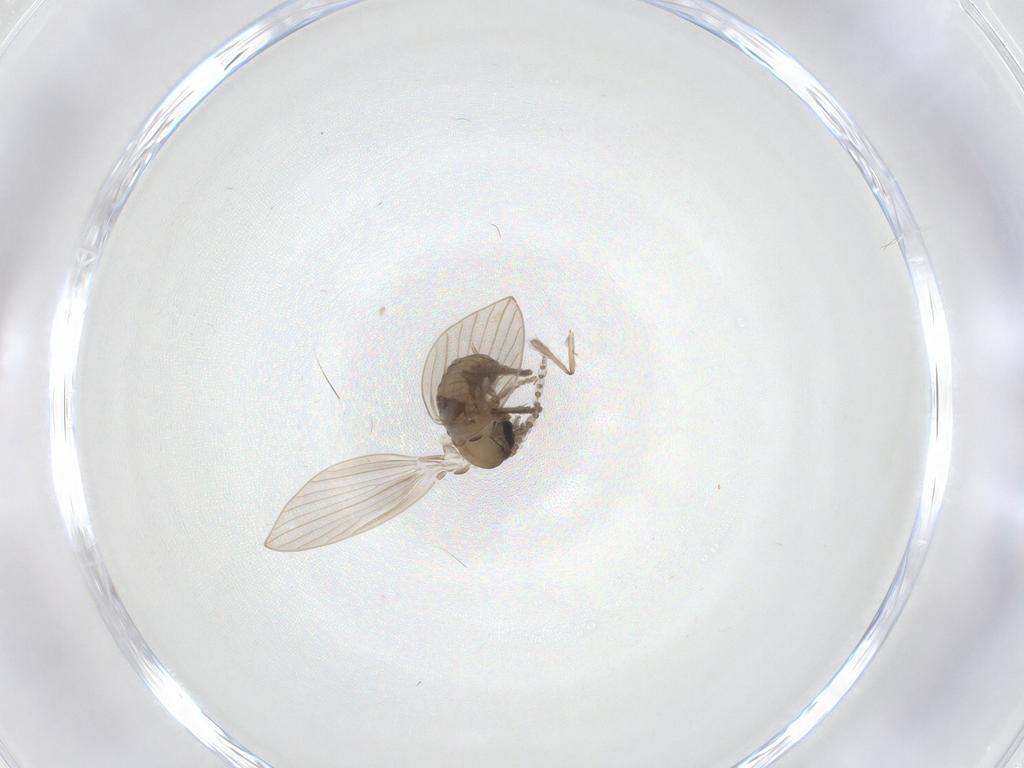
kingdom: Animalia
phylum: Arthropoda
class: Insecta
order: Diptera
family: Psychodidae
